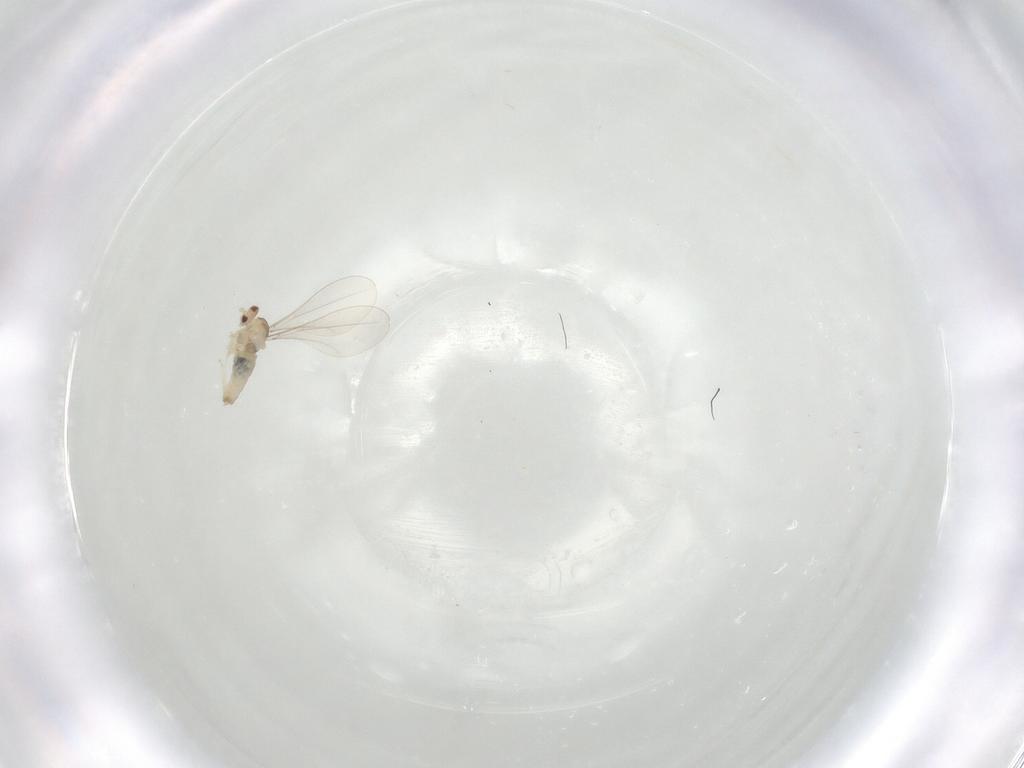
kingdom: Animalia
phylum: Arthropoda
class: Insecta
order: Diptera
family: Cecidomyiidae
